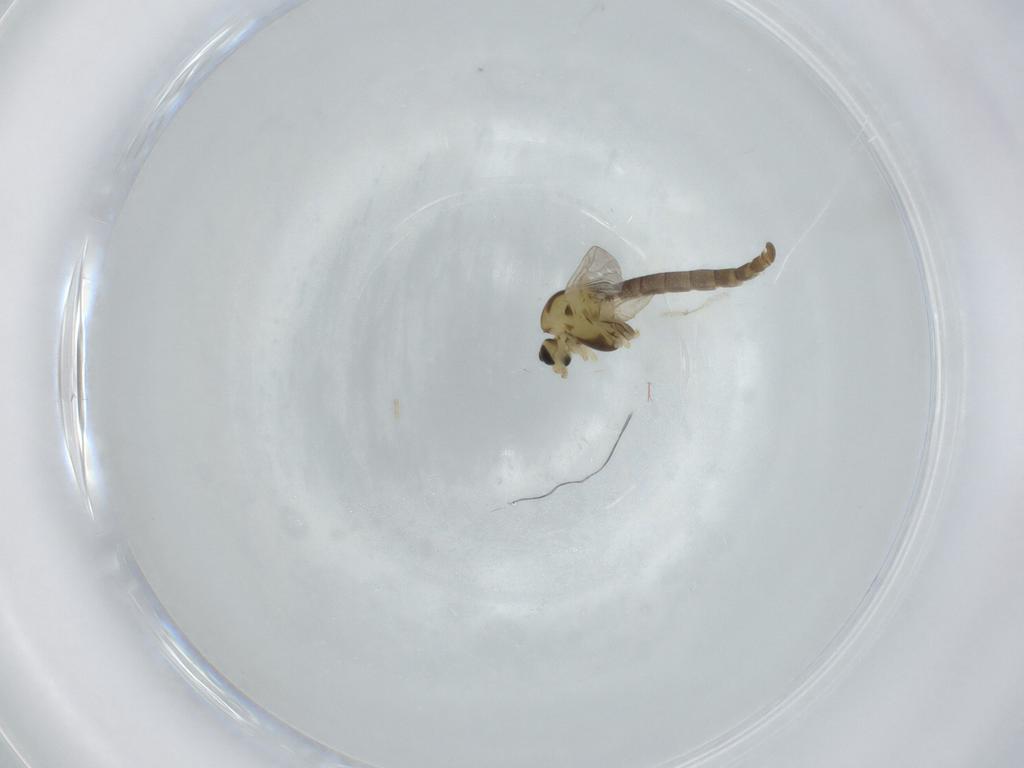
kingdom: Animalia
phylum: Arthropoda
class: Insecta
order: Diptera
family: Chironomidae
